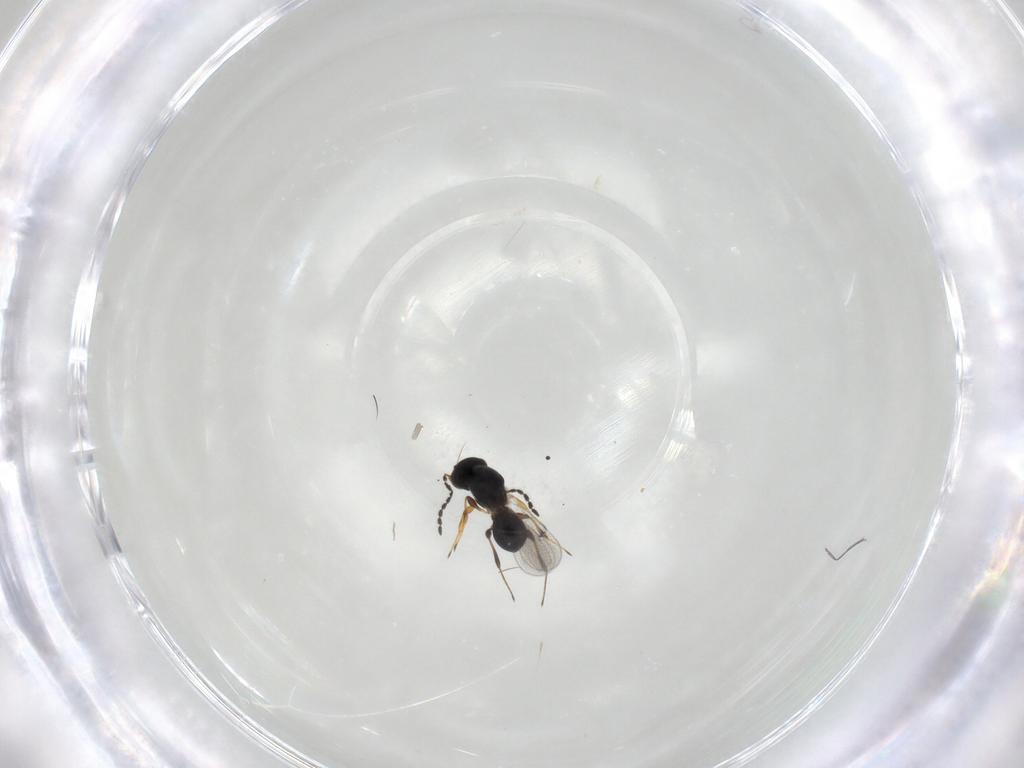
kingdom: Animalia
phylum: Arthropoda
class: Insecta
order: Hymenoptera
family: Platygastridae
